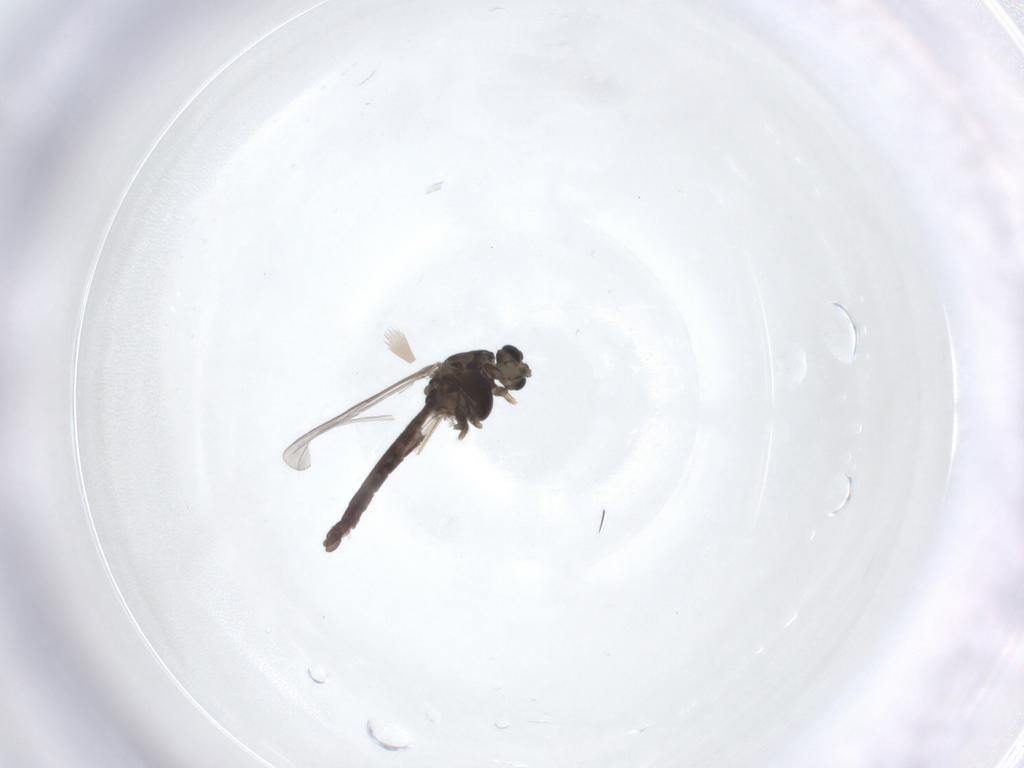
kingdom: Animalia
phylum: Arthropoda
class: Insecta
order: Diptera
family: Chironomidae
